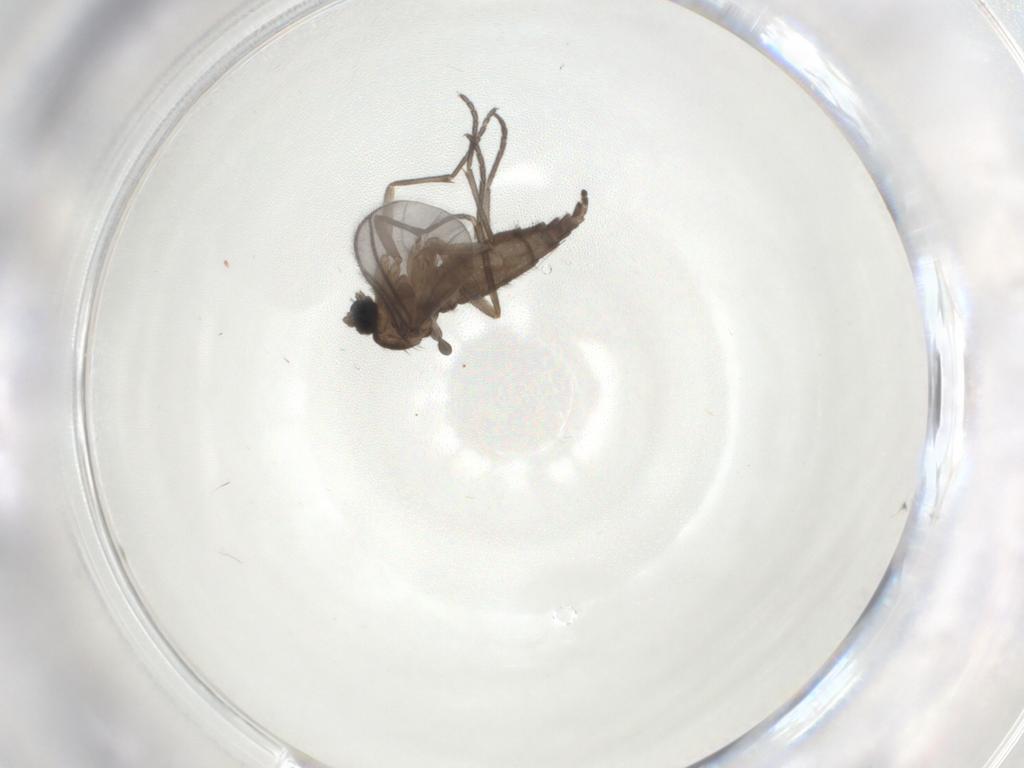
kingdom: Animalia
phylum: Arthropoda
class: Insecta
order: Diptera
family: Sciaridae
